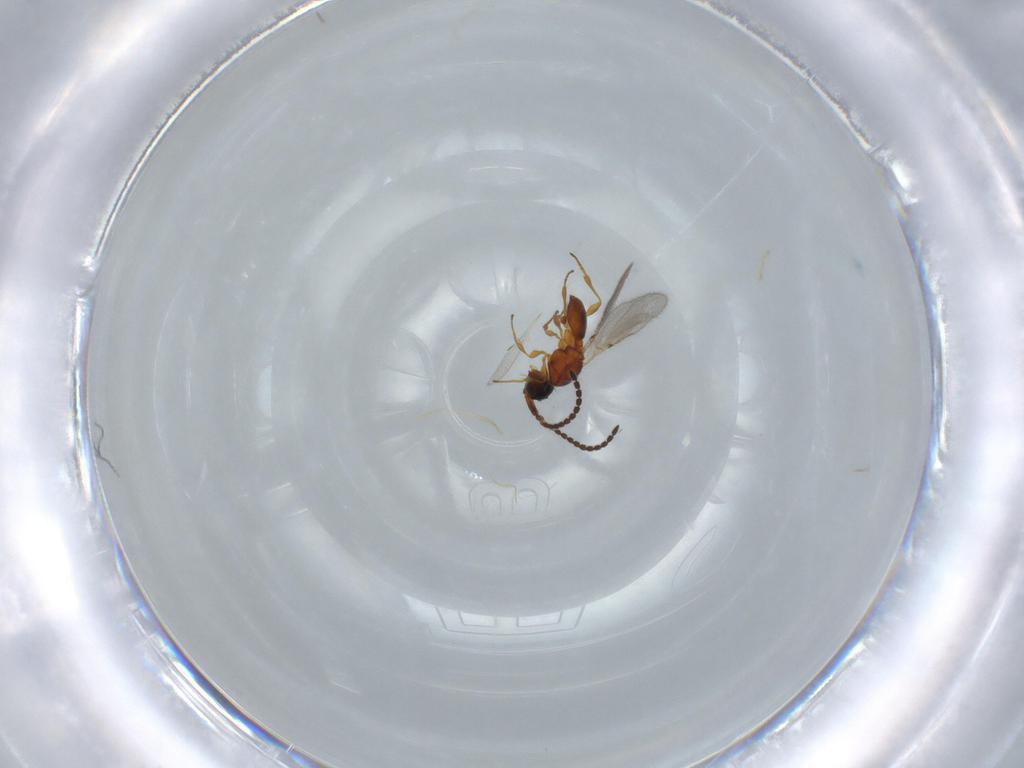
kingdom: Animalia
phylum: Arthropoda
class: Insecta
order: Hymenoptera
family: Diapriidae
